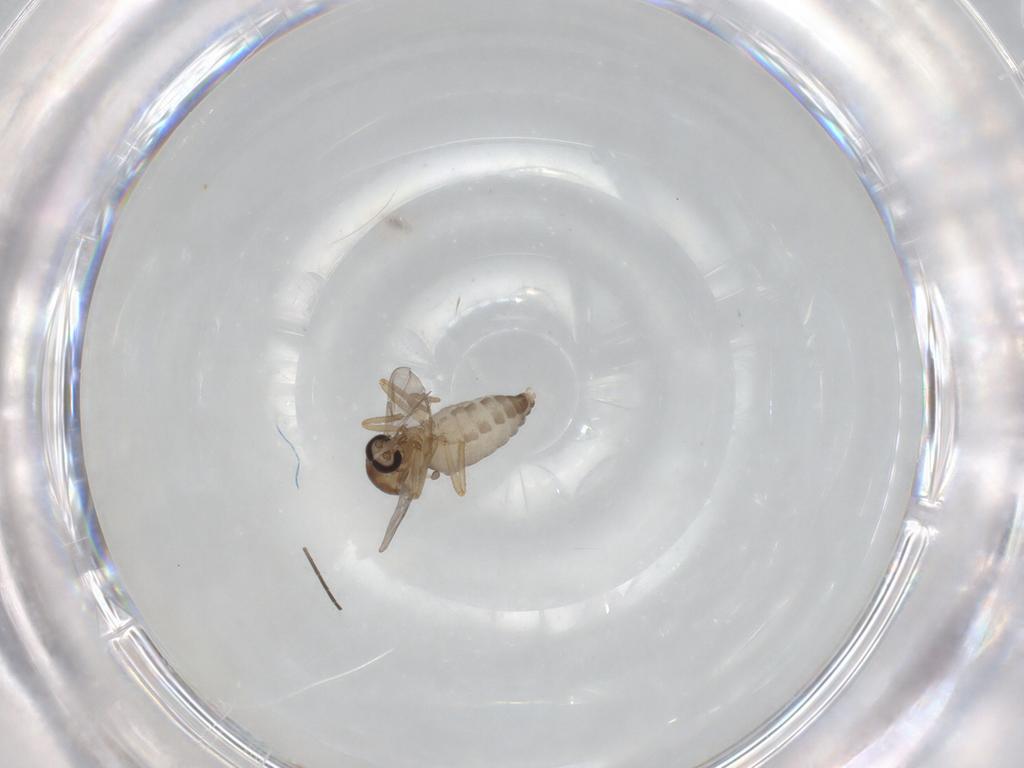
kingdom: Animalia
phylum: Arthropoda
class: Insecta
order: Diptera
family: Ceratopogonidae
